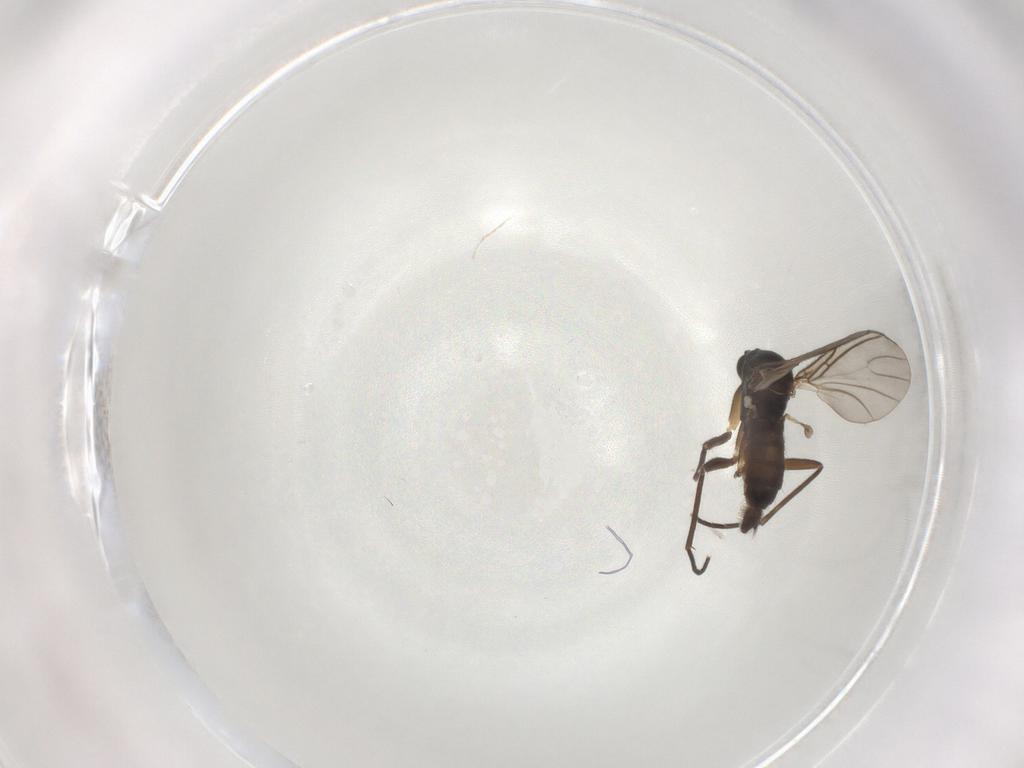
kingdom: Animalia
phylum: Arthropoda
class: Insecta
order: Diptera
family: Sciaridae
